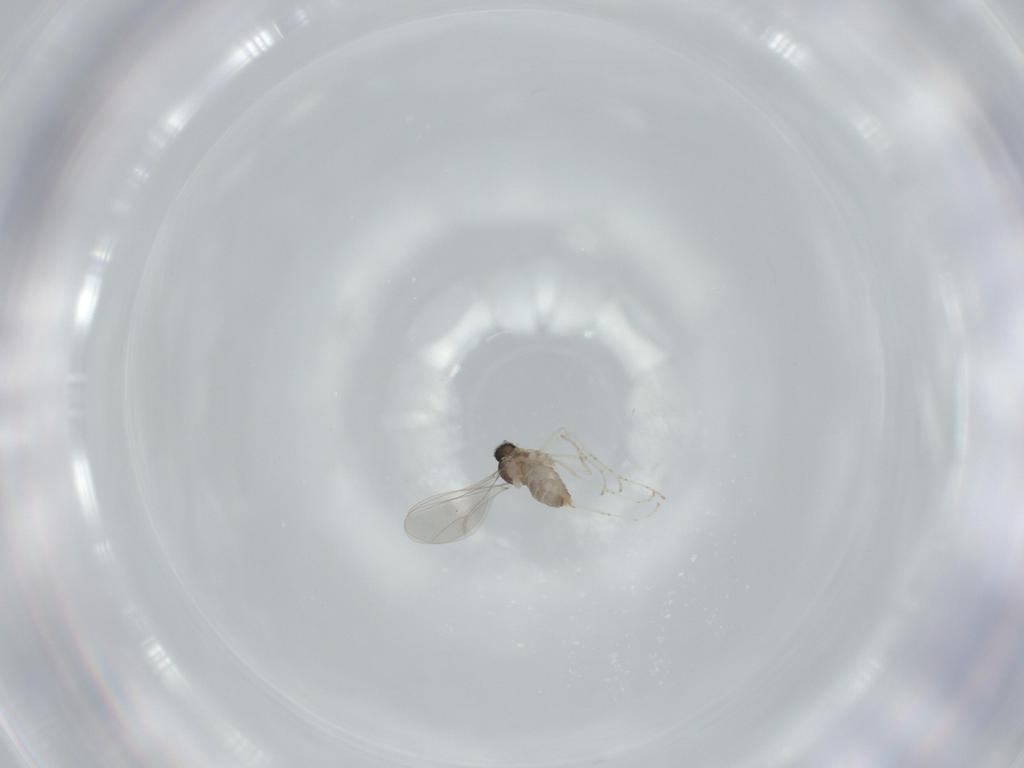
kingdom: Animalia
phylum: Arthropoda
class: Insecta
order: Diptera
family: Cecidomyiidae
